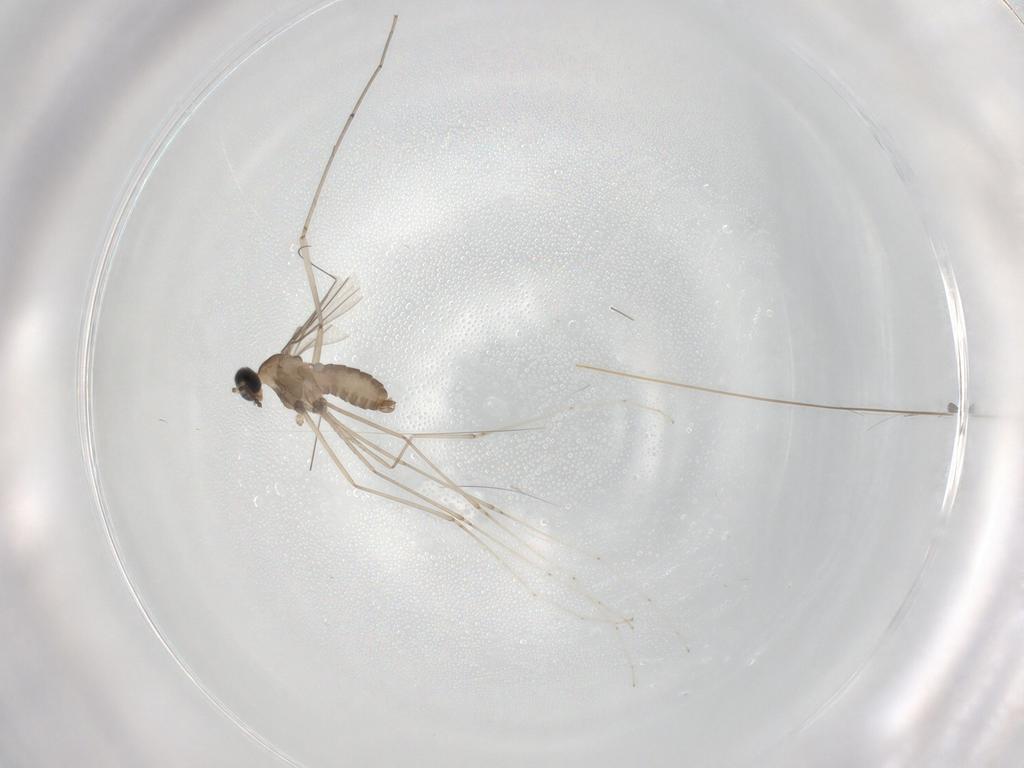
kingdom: Animalia
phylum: Arthropoda
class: Insecta
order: Diptera
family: Cecidomyiidae
